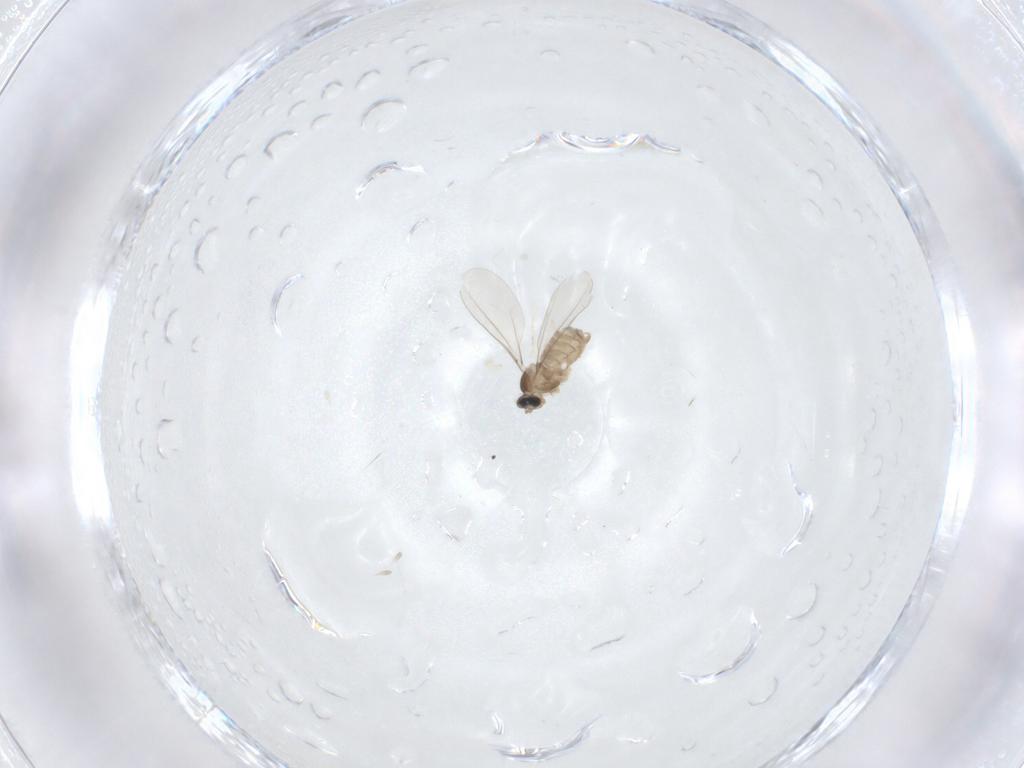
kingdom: Animalia
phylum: Arthropoda
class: Insecta
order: Diptera
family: Cecidomyiidae
